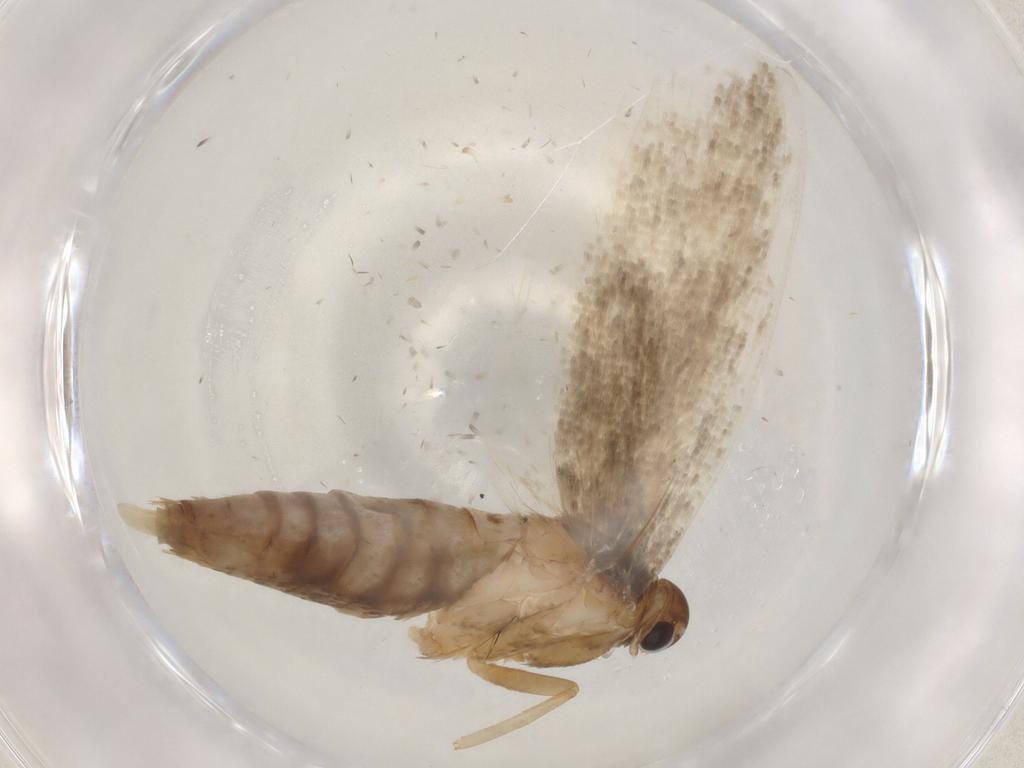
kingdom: Animalia
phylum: Arthropoda
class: Insecta
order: Lepidoptera
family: Gelechiidae
